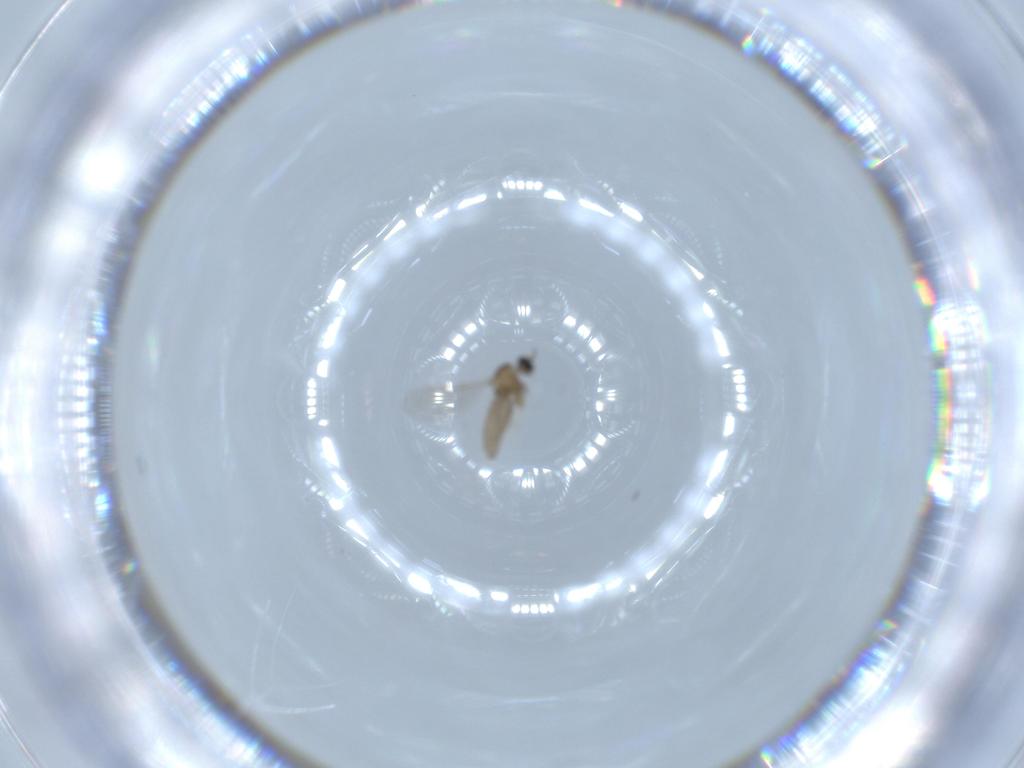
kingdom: Animalia
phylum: Arthropoda
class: Insecta
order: Diptera
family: Cecidomyiidae
